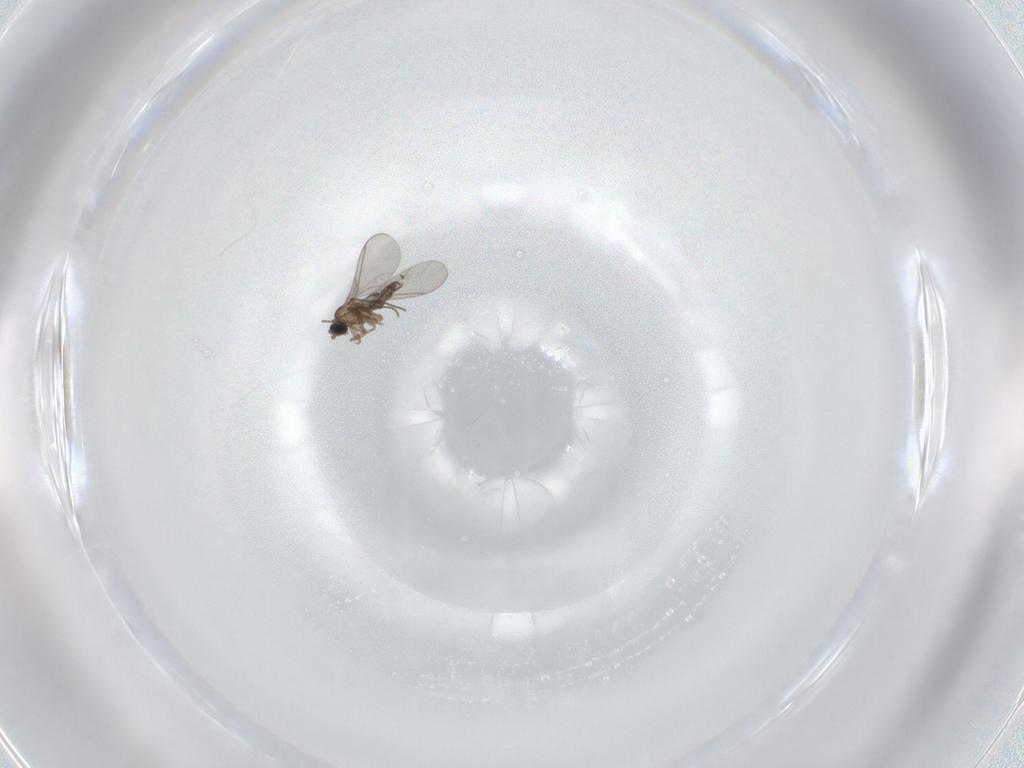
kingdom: Animalia
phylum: Arthropoda
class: Insecta
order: Diptera
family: Sciaridae
